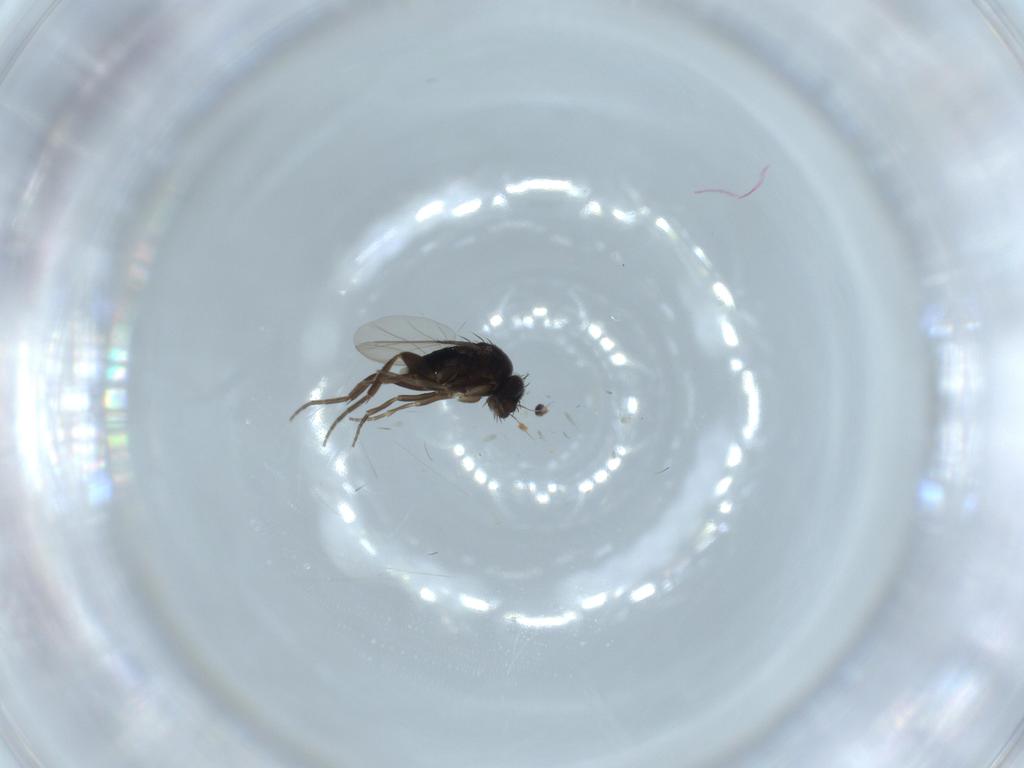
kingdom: Animalia
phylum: Arthropoda
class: Insecta
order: Diptera
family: Phoridae
